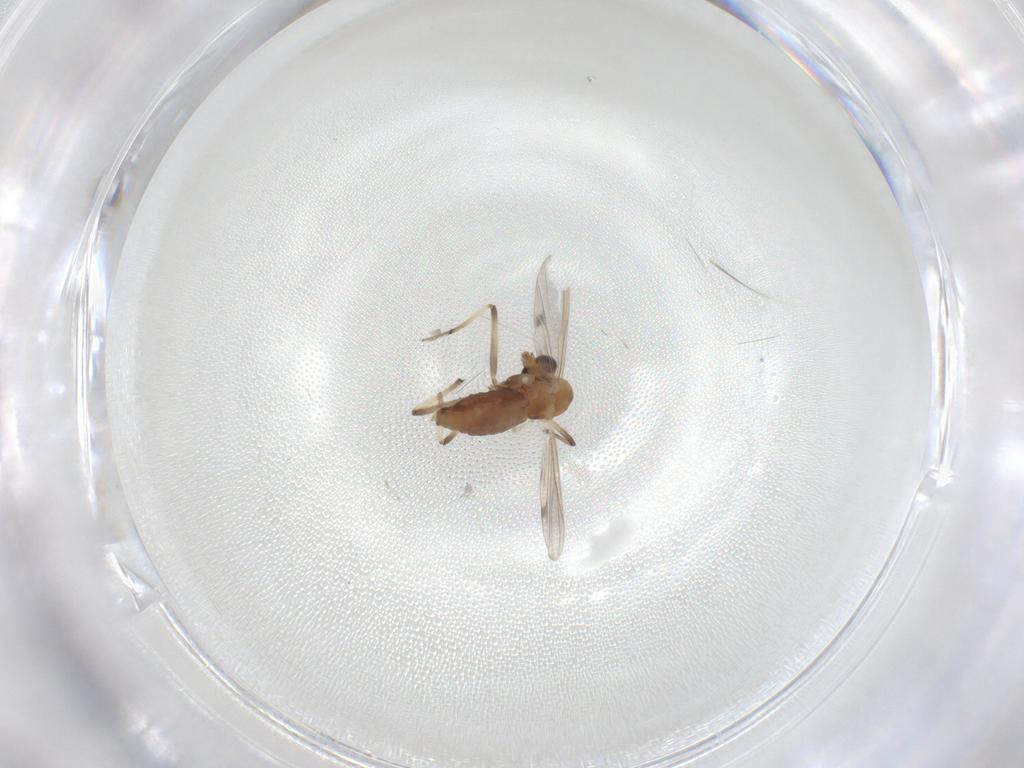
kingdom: Animalia
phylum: Arthropoda
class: Insecta
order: Diptera
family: Chironomidae
